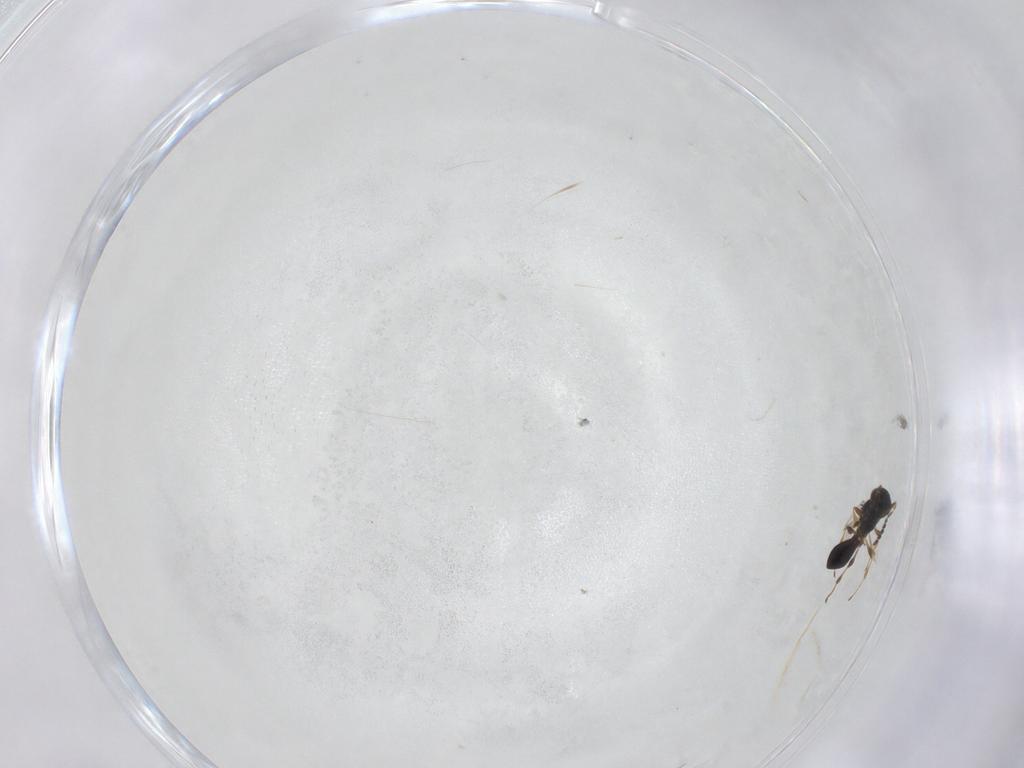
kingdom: Animalia
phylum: Arthropoda
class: Insecta
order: Hymenoptera
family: Platygastridae
